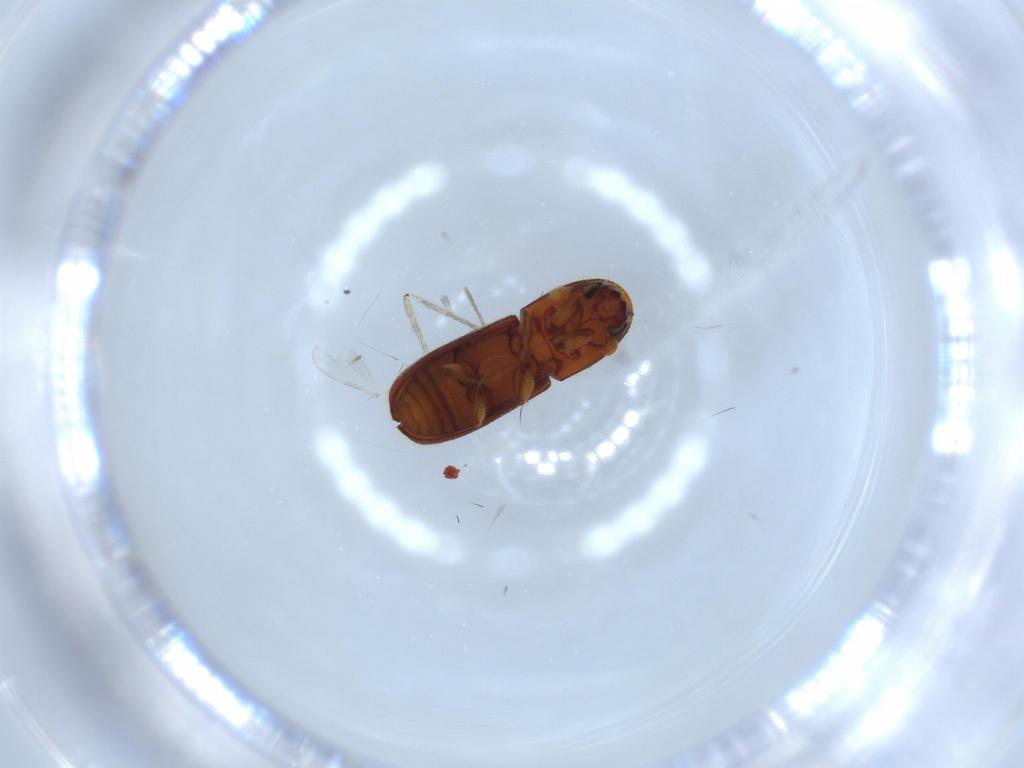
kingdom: Animalia
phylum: Arthropoda
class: Insecta
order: Coleoptera
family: Curculionidae
